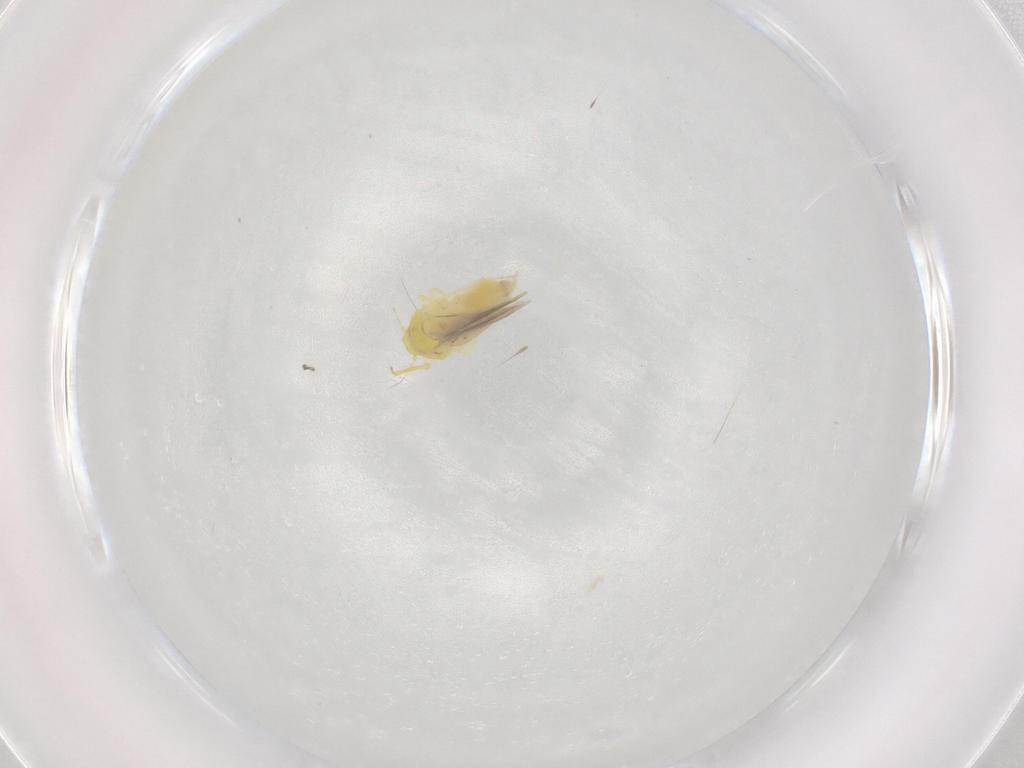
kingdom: Animalia
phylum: Arthropoda
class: Insecta
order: Hemiptera
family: Aleyrodidae
